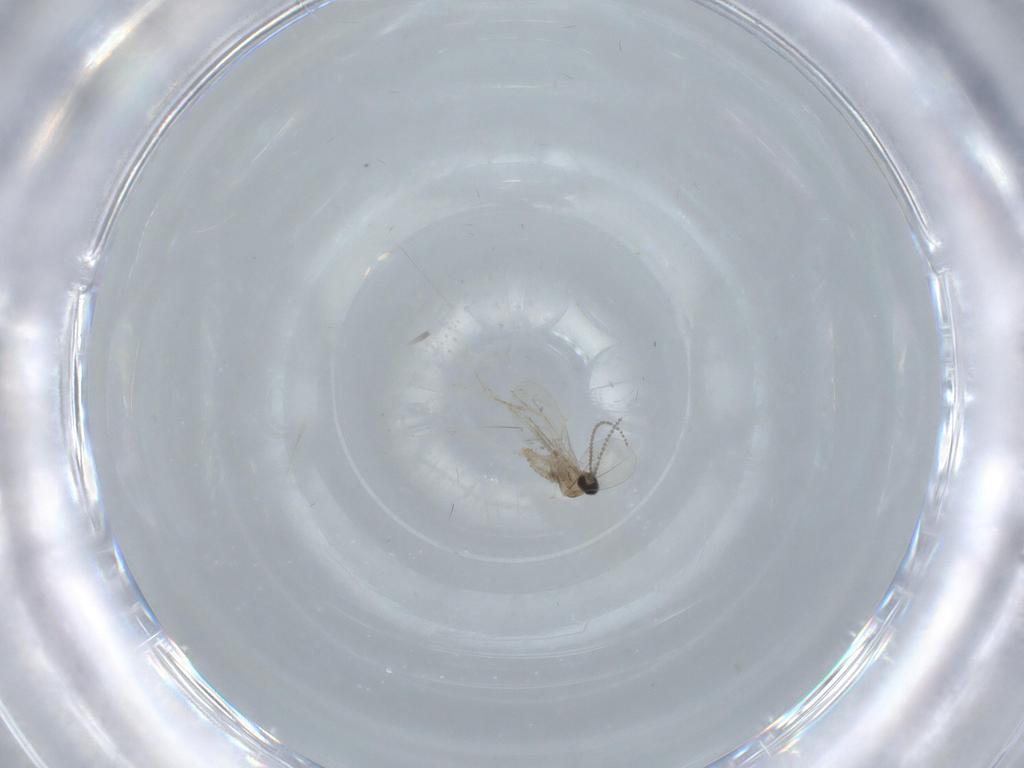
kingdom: Animalia
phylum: Arthropoda
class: Insecta
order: Diptera
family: Cecidomyiidae
